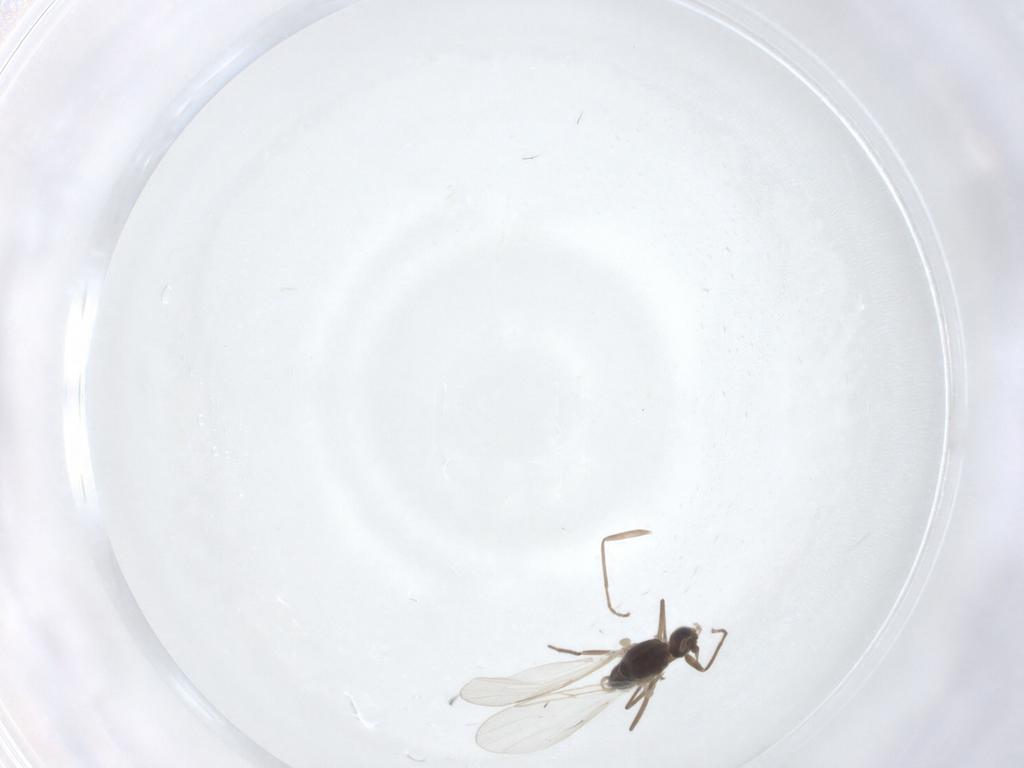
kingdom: Animalia
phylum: Arthropoda
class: Insecta
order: Diptera
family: Cecidomyiidae
